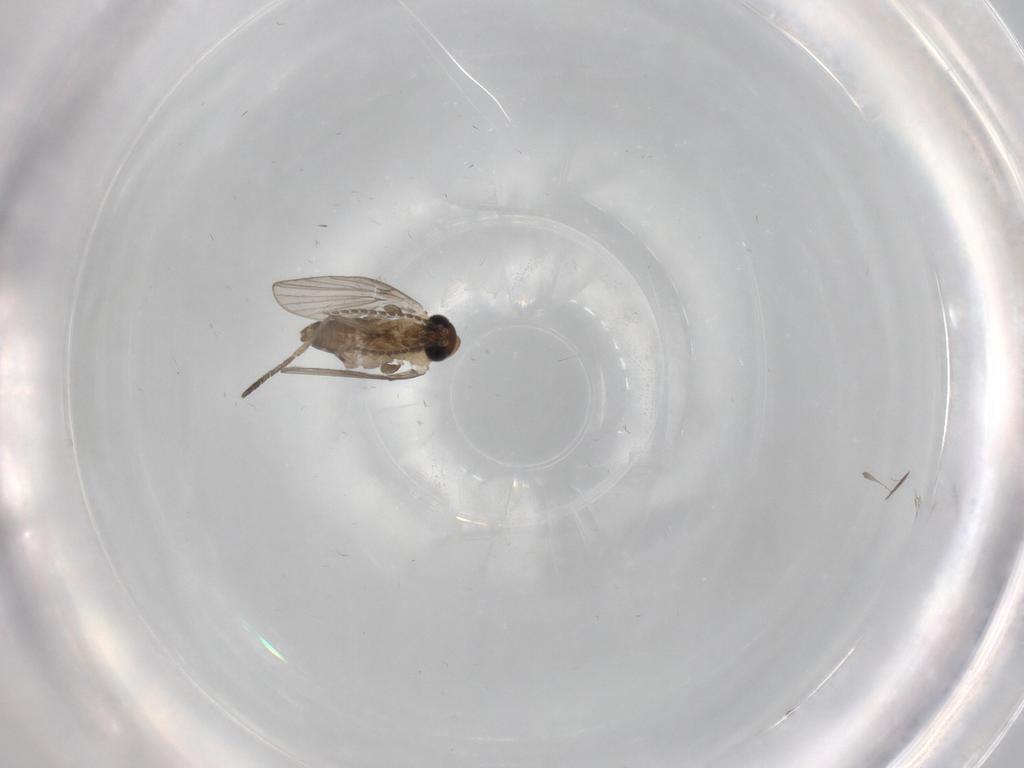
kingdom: Animalia
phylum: Arthropoda
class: Insecta
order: Diptera
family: Psychodidae
